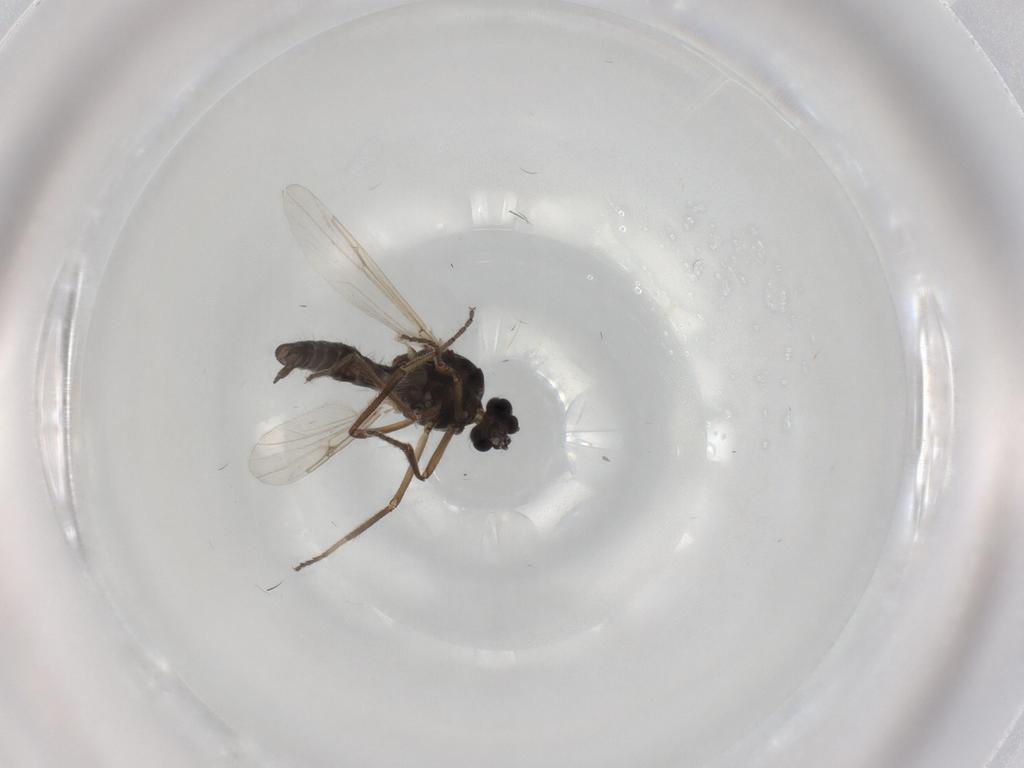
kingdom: Animalia
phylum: Arthropoda
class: Insecta
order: Diptera
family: Ceratopogonidae
